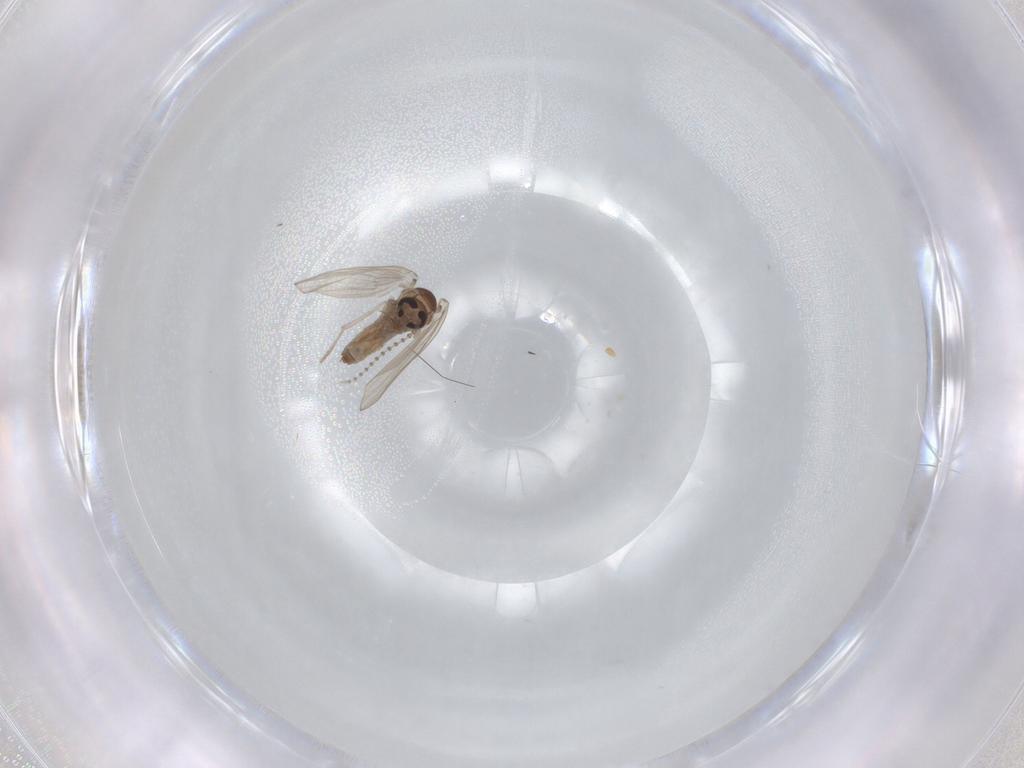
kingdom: Animalia
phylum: Arthropoda
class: Insecta
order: Diptera
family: Psychodidae
